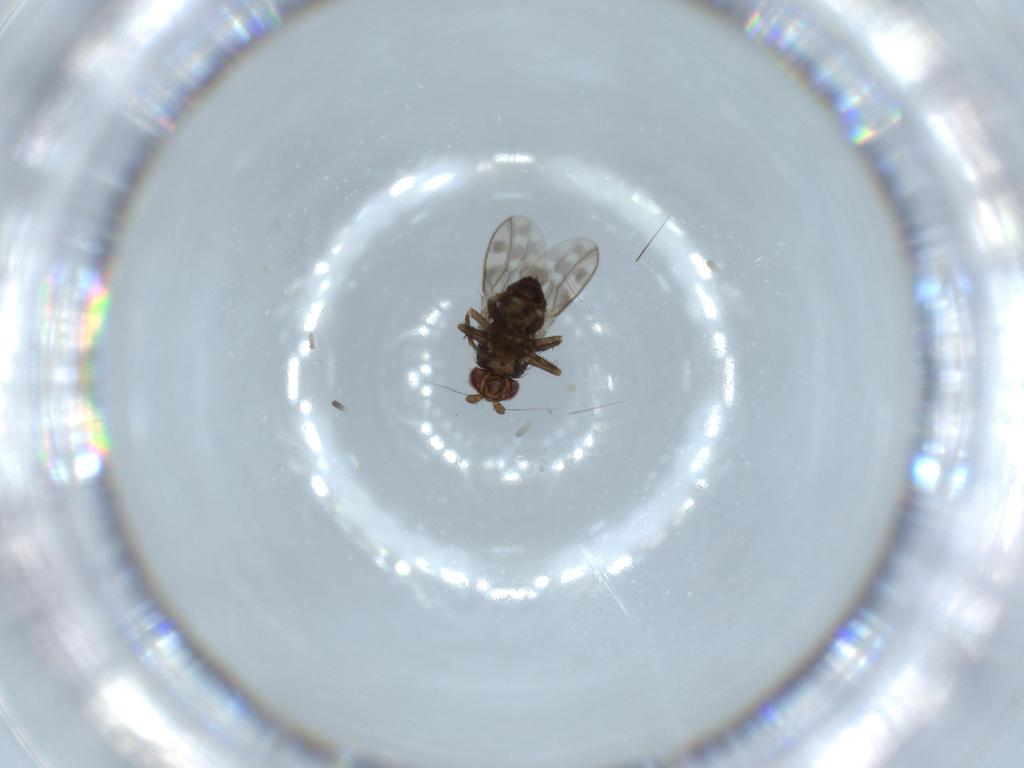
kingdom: Animalia
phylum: Arthropoda
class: Insecta
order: Diptera
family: Sphaeroceridae
